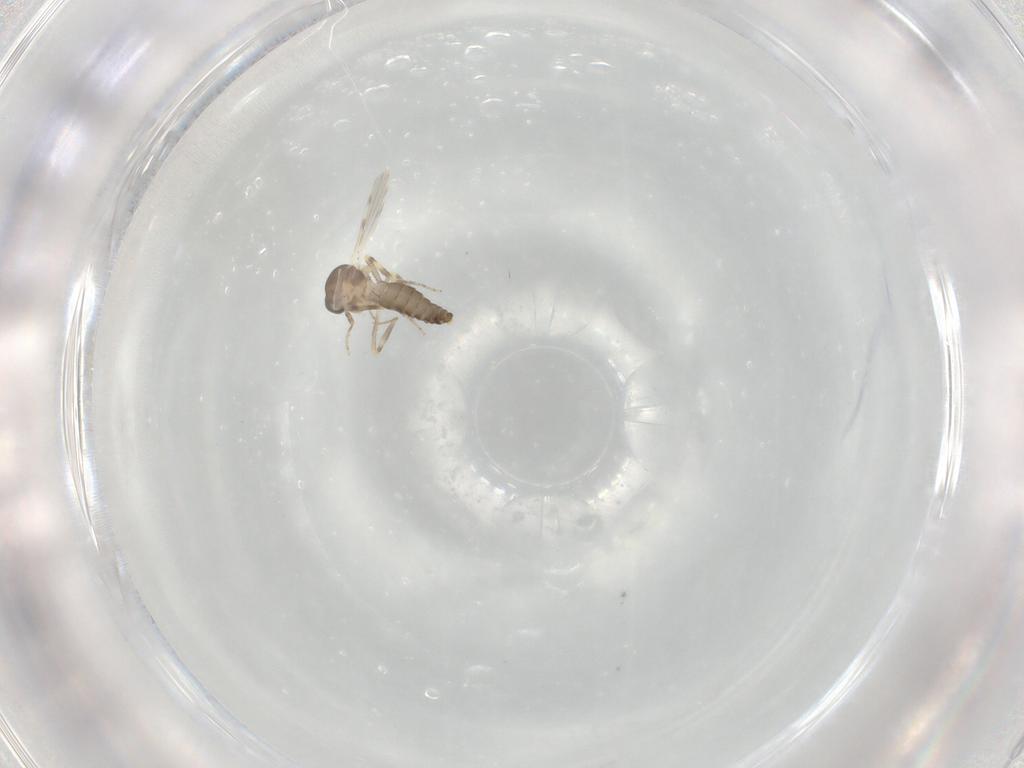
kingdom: Animalia
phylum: Arthropoda
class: Insecta
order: Diptera
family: Ceratopogonidae
